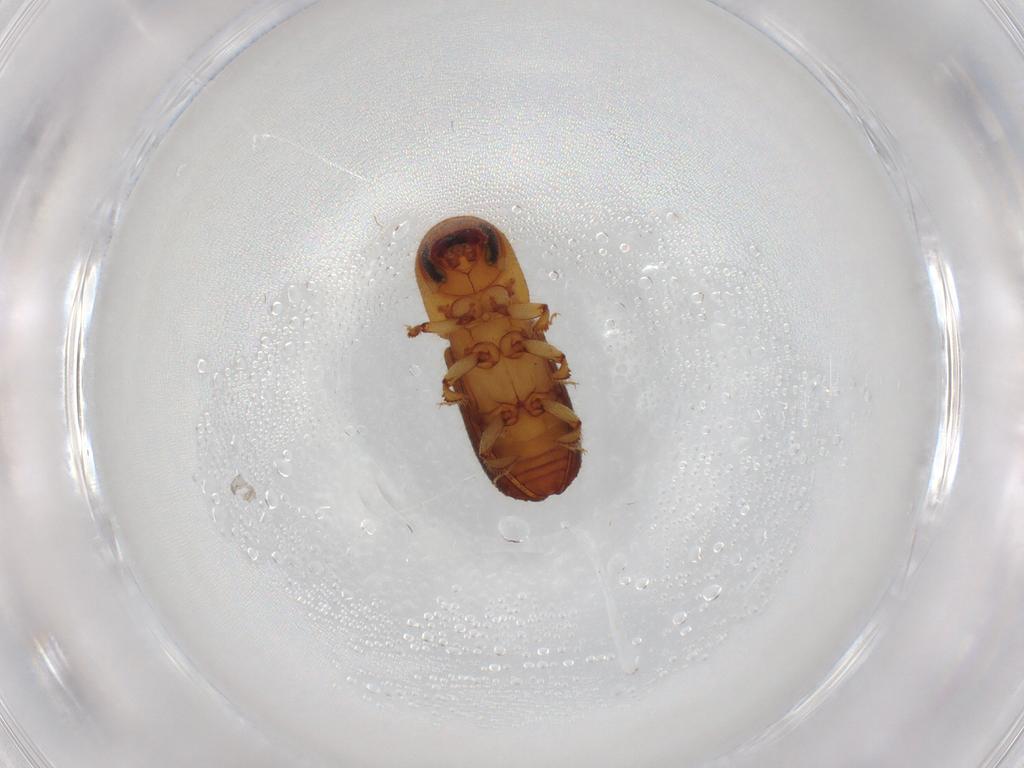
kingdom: Animalia
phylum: Arthropoda
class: Insecta
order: Coleoptera
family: Curculionidae
